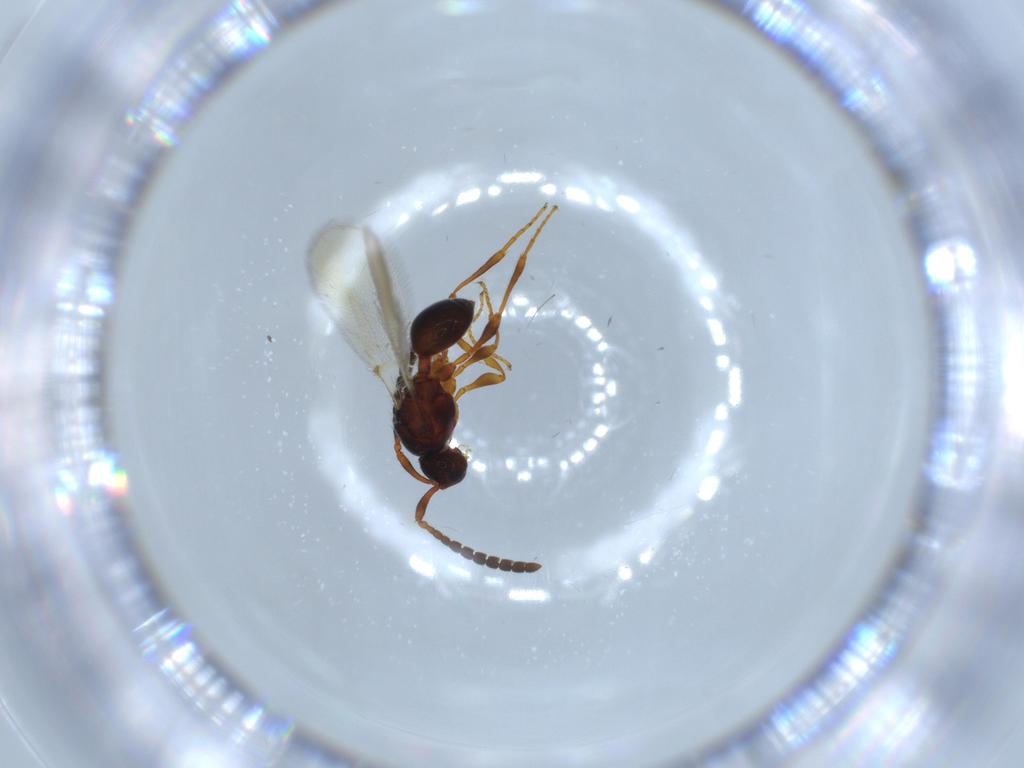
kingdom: Animalia
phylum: Arthropoda
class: Insecta
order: Hymenoptera
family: Diapriidae
